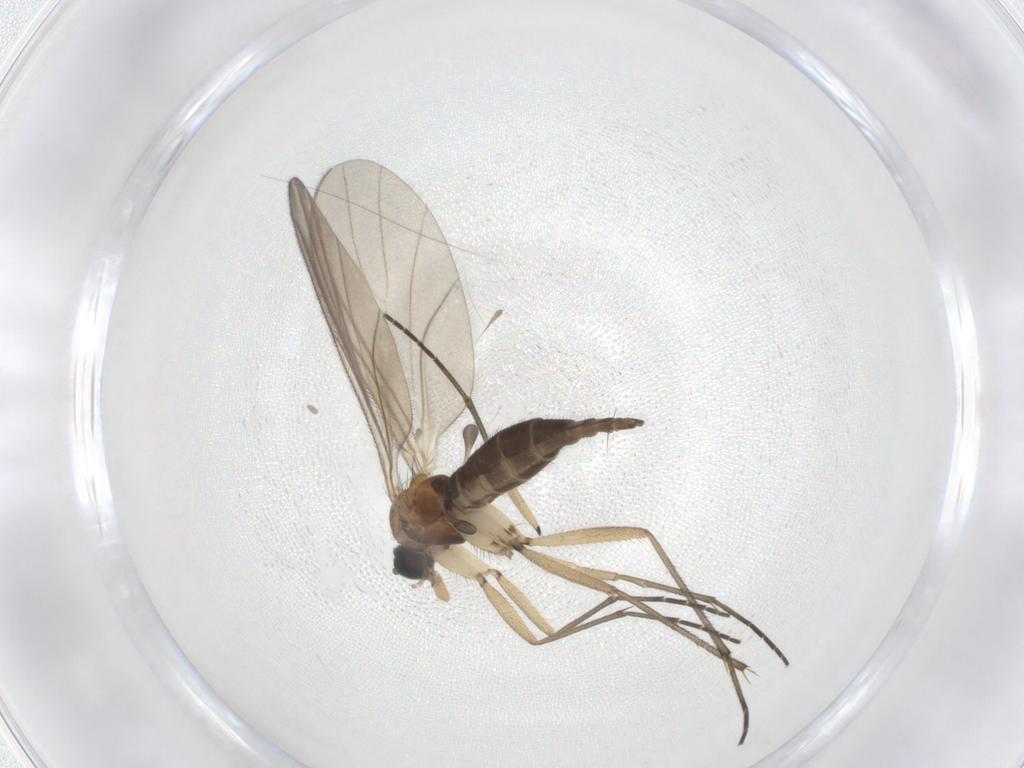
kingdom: Animalia
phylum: Arthropoda
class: Insecta
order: Diptera
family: Sciaridae
